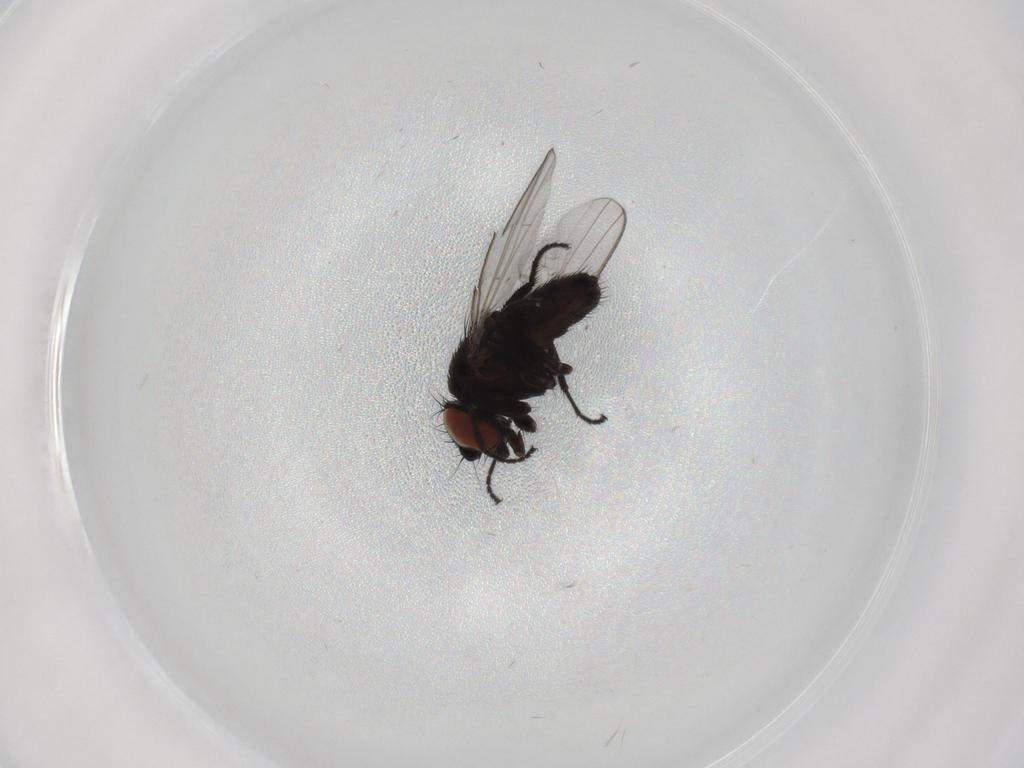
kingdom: Animalia
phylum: Arthropoda
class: Insecta
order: Diptera
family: Milichiidae
